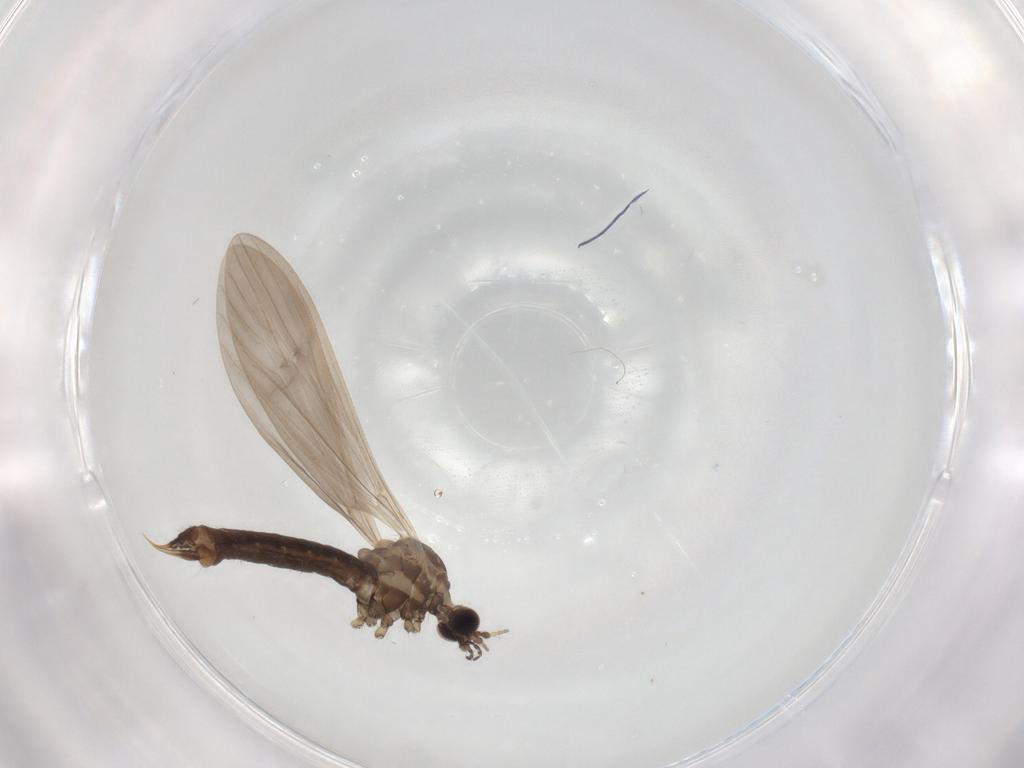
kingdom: Animalia
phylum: Arthropoda
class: Insecta
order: Diptera
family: Limoniidae
